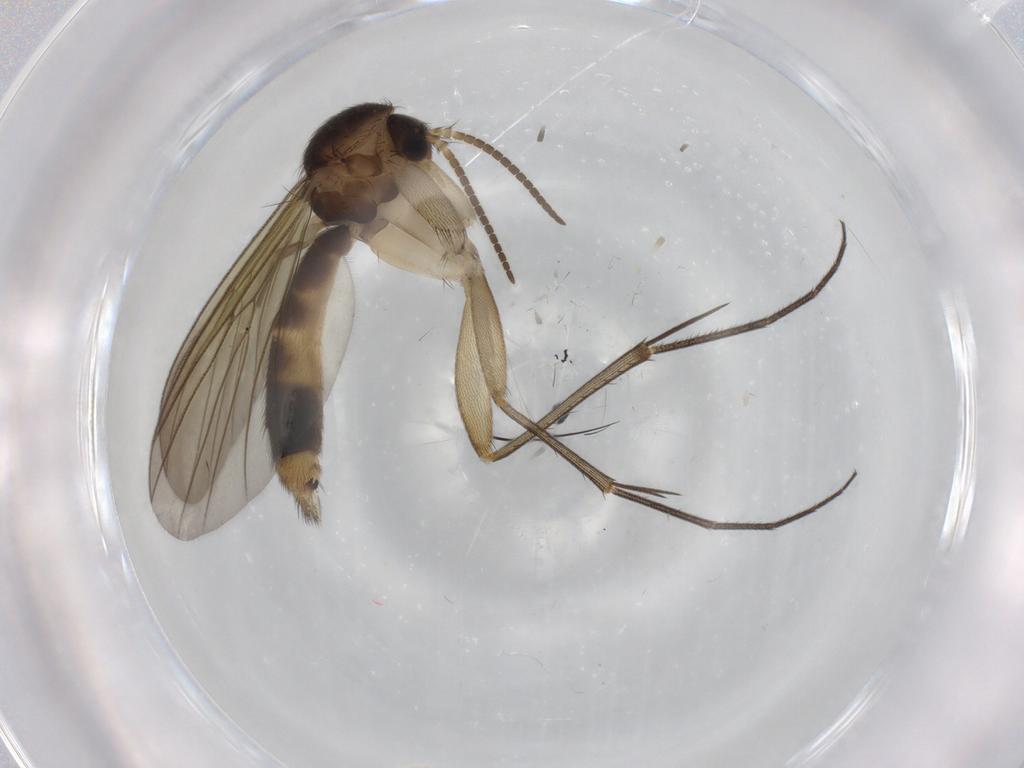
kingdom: Animalia
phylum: Arthropoda
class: Insecta
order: Diptera
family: Mycetophilidae
